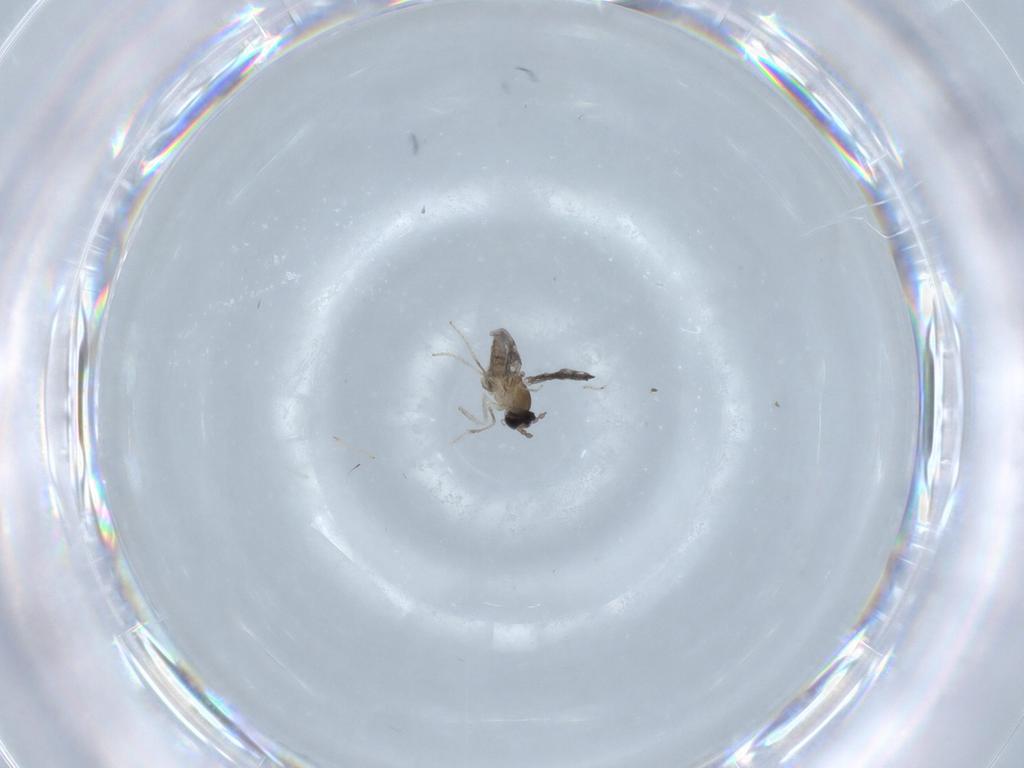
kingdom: Animalia
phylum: Arthropoda
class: Insecta
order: Diptera
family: Cecidomyiidae
